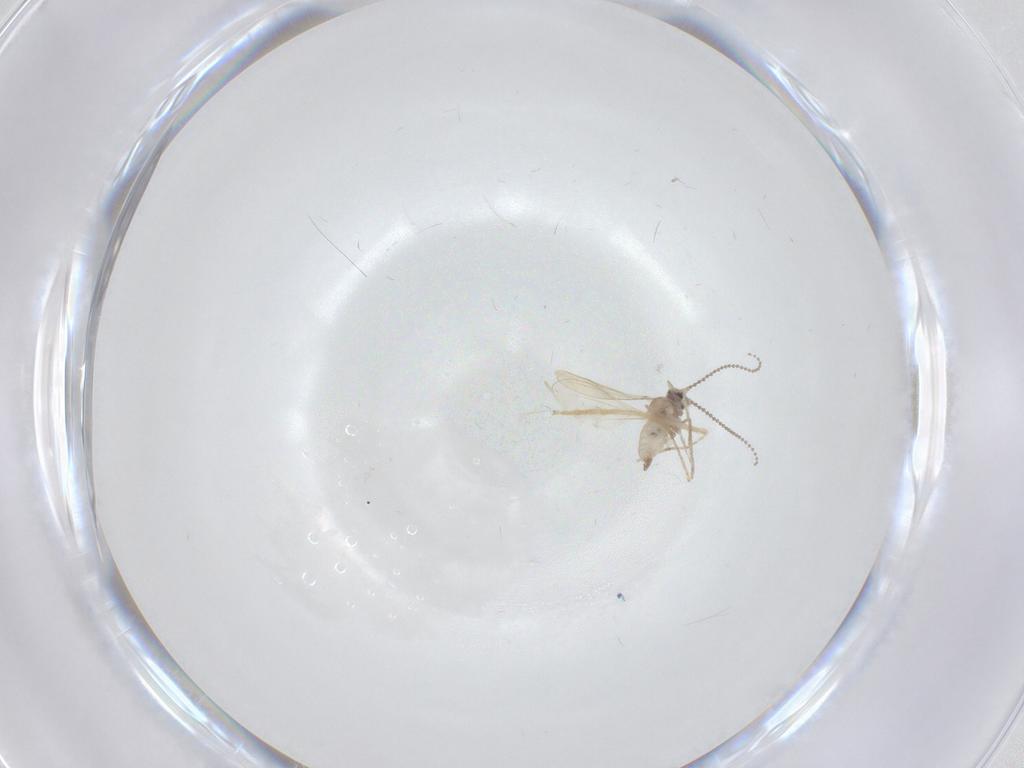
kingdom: Animalia
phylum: Arthropoda
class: Insecta
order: Diptera
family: Cecidomyiidae
